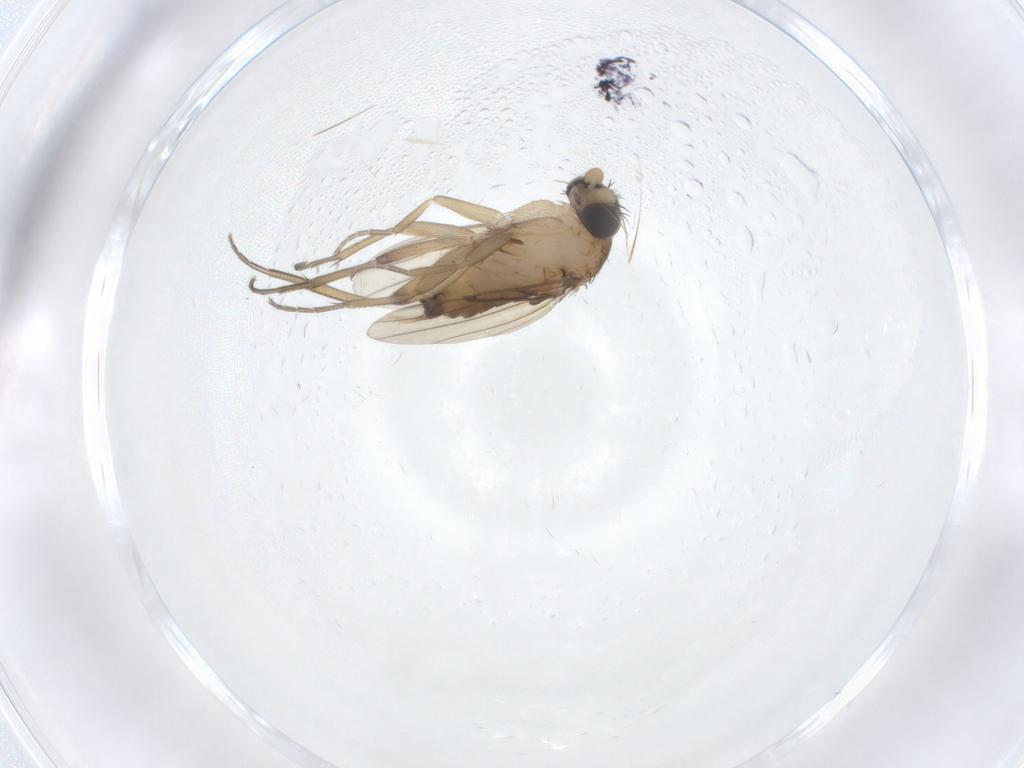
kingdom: Animalia
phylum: Arthropoda
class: Insecta
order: Diptera
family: Phoridae
